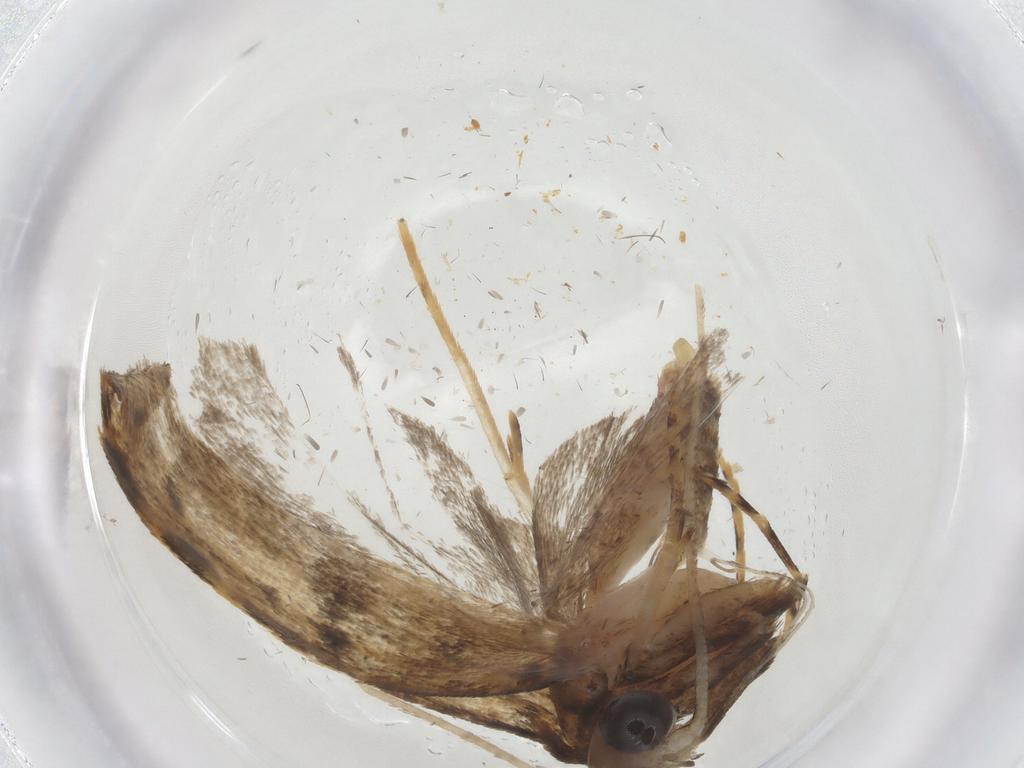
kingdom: Animalia
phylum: Arthropoda
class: Insecta
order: Lepidoptera
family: Autostichidae
